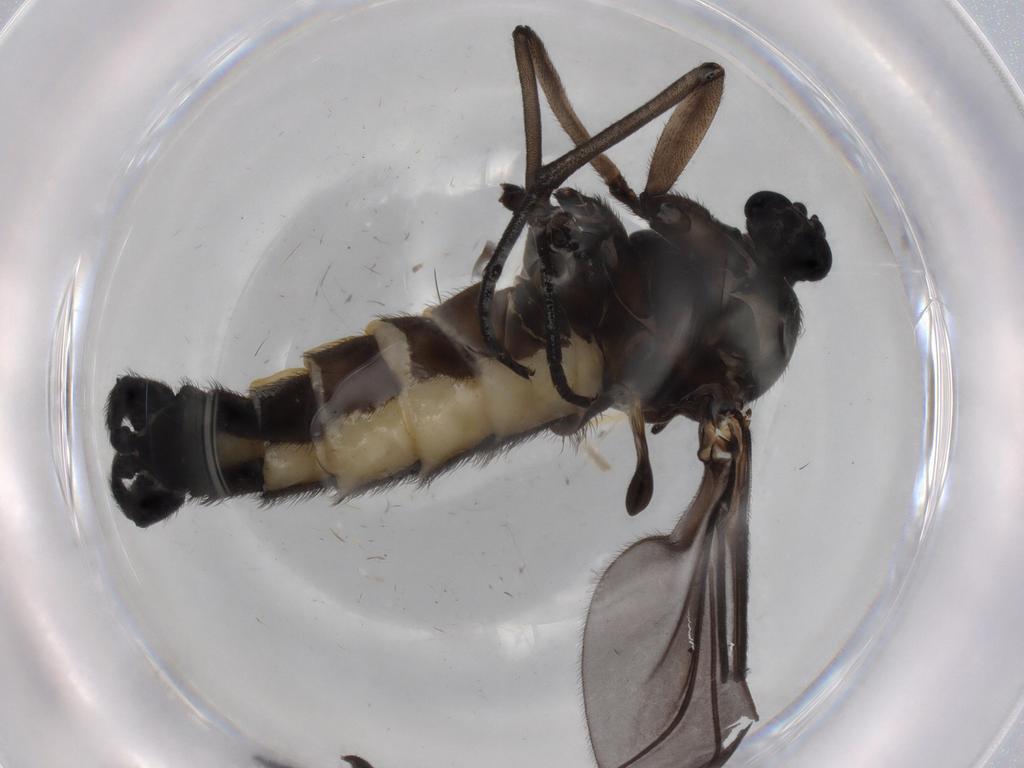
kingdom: Animalia
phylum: Arthropoda
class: Insecta
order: Diptera
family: Sciaridae
